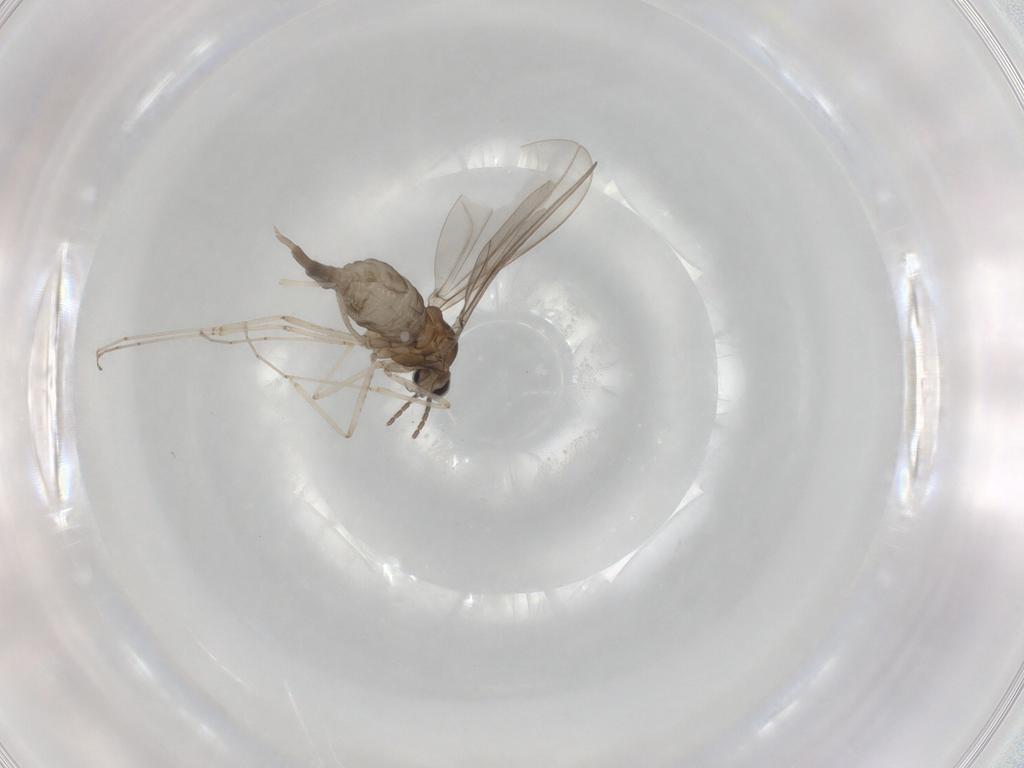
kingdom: Animalia
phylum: Arthropoda
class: Insecta
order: Diptera
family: Cecidomyiidae
